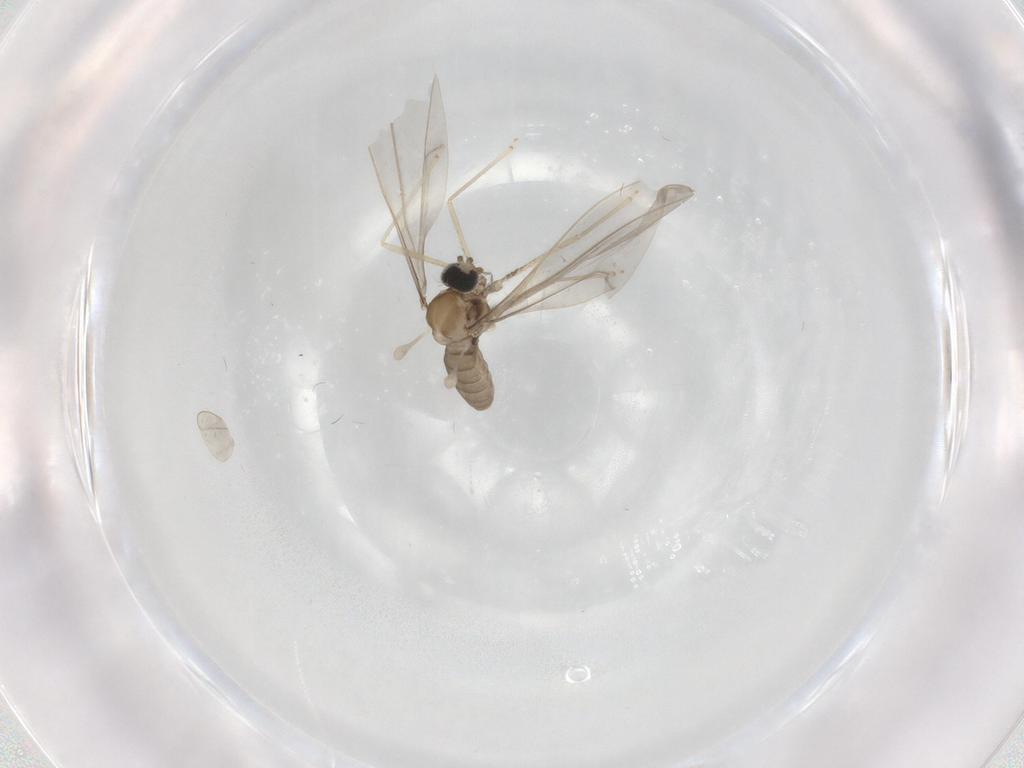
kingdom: Animalia
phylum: Arthropoda
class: Insecta
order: Diptera
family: Cecidomyiidae
